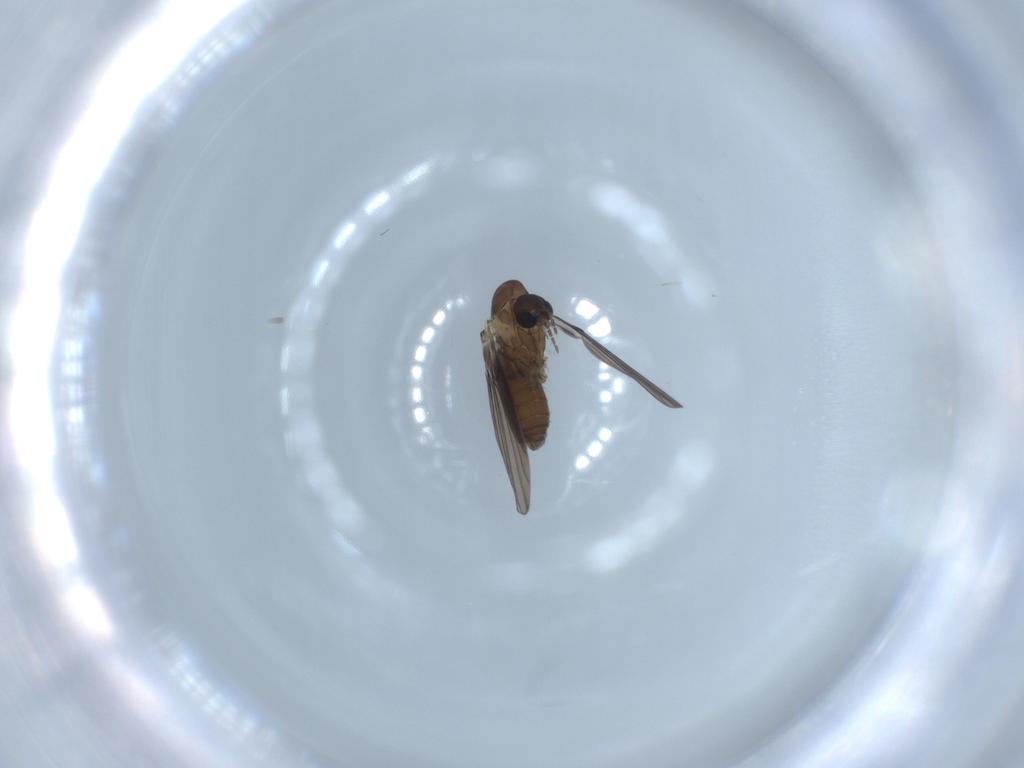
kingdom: Animalia
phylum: Arthropoda
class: Insecta
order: Diptera
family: Psychodidae
